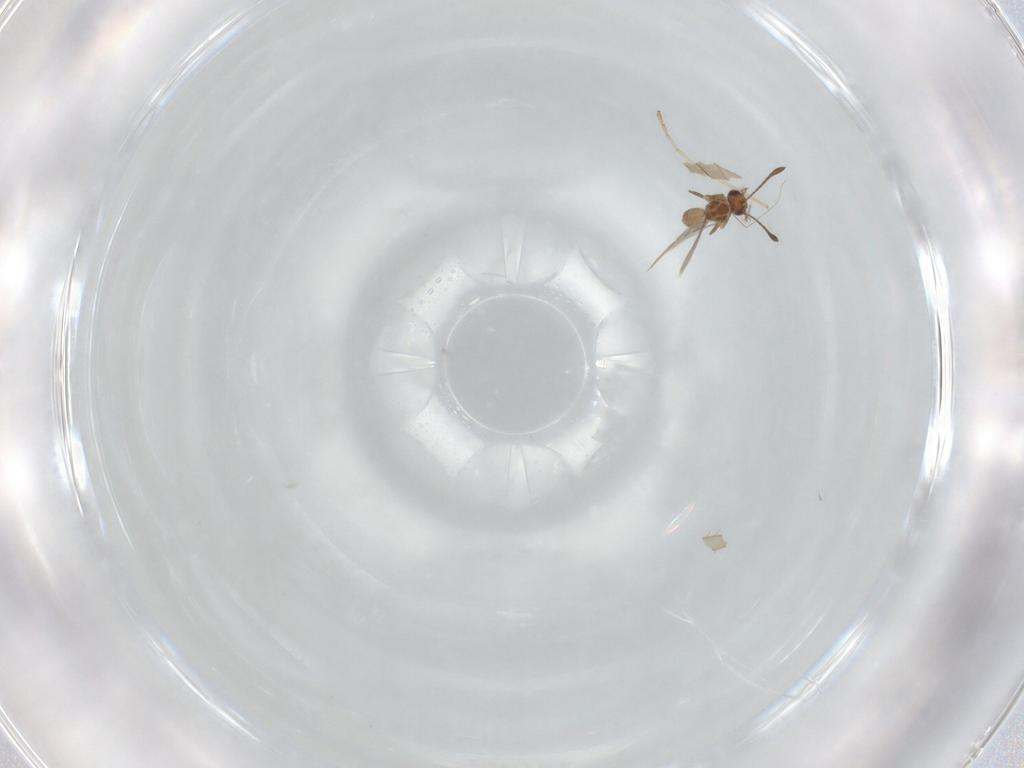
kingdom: Animalia
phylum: Arthropoda
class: Insecta
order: Hymenoptera
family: Mymaridae
